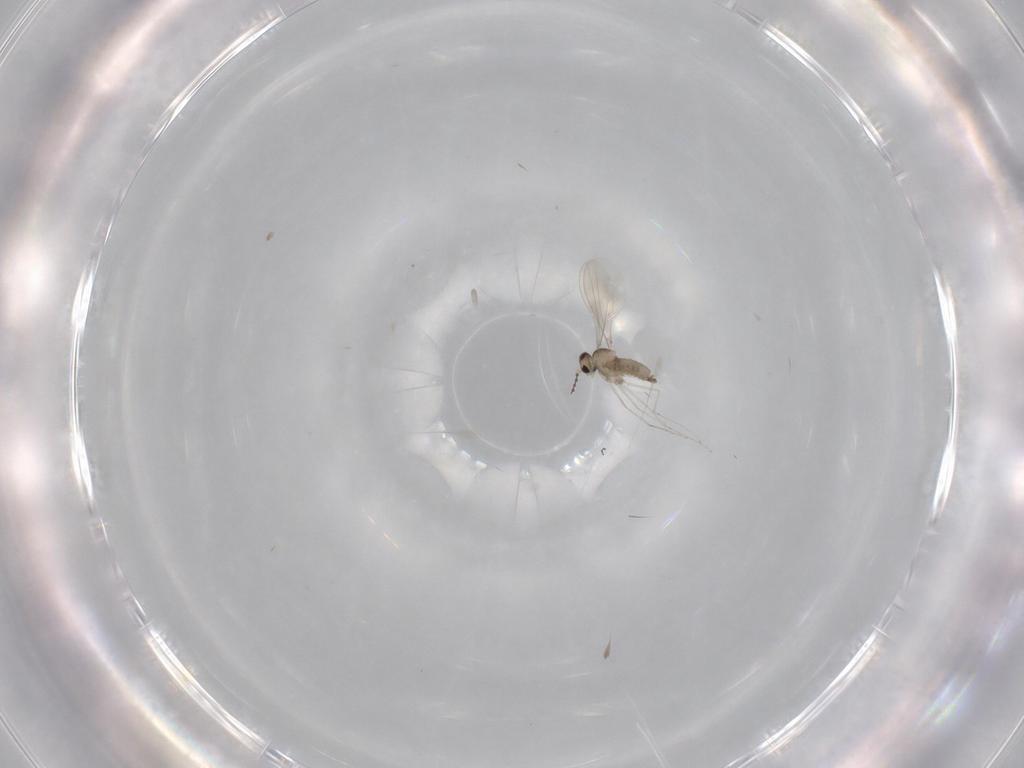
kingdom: Animalia
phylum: Arthropoda
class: Insecta
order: Diptera
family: Cecidomyiidae
